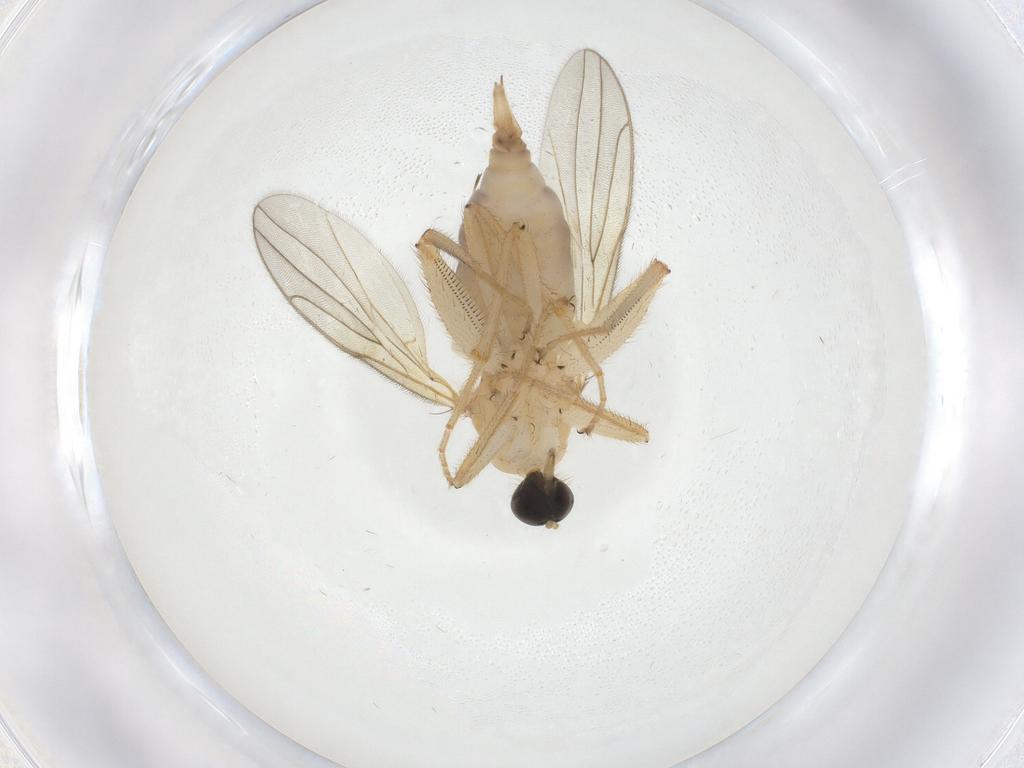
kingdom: Animalia
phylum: Arthropoda
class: Insecta
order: Diptera
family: Hybotidae
